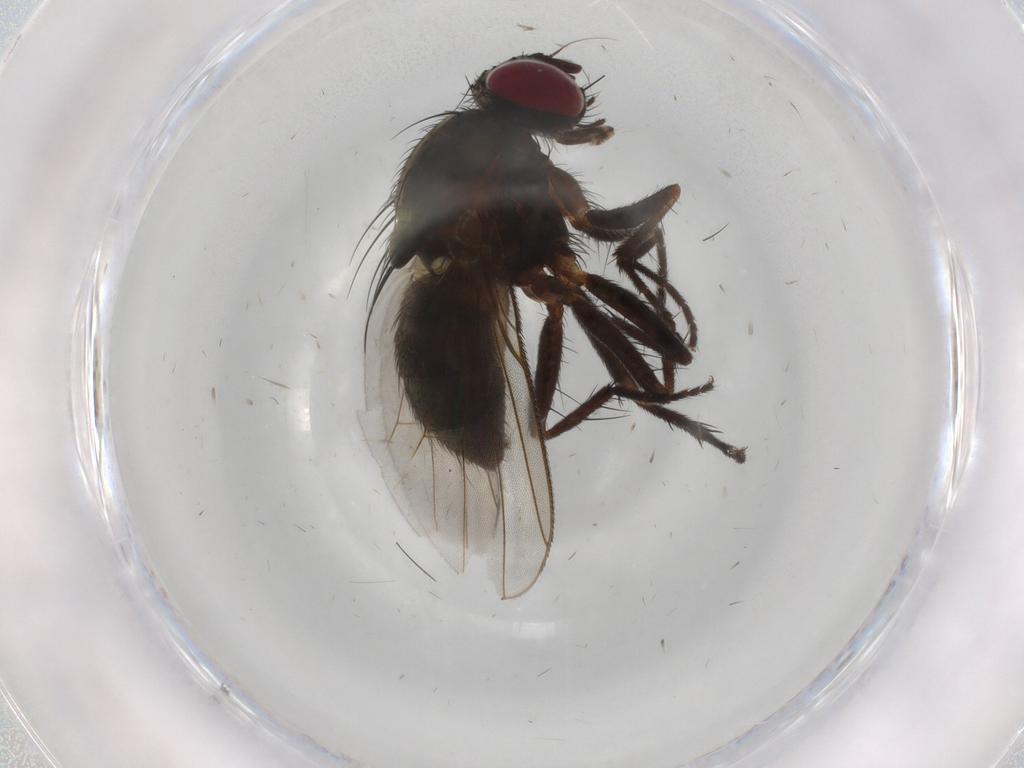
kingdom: Animalia
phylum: Arthropoda
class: Insecta
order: Diptera
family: Muscidae
